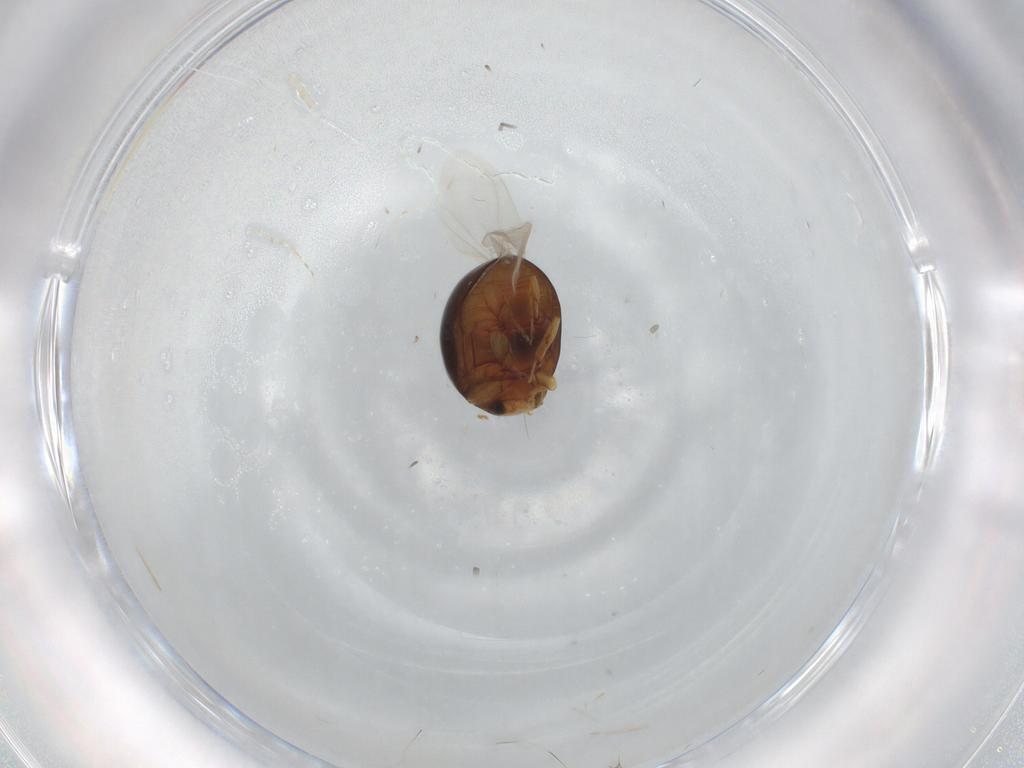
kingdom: Animalia
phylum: Arthropoda
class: Insecta
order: Coleoptera
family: Coccinellidae
